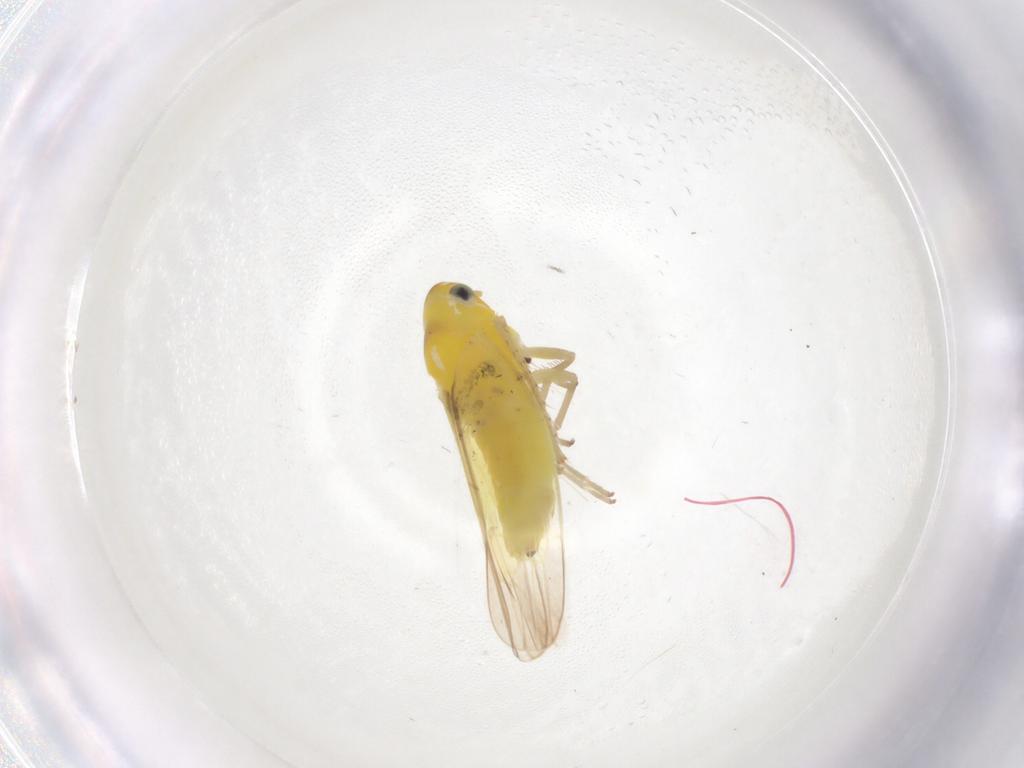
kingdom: Animalia
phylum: Arthropoda
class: Insecta
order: Hemiptera
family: Cicadellidae
